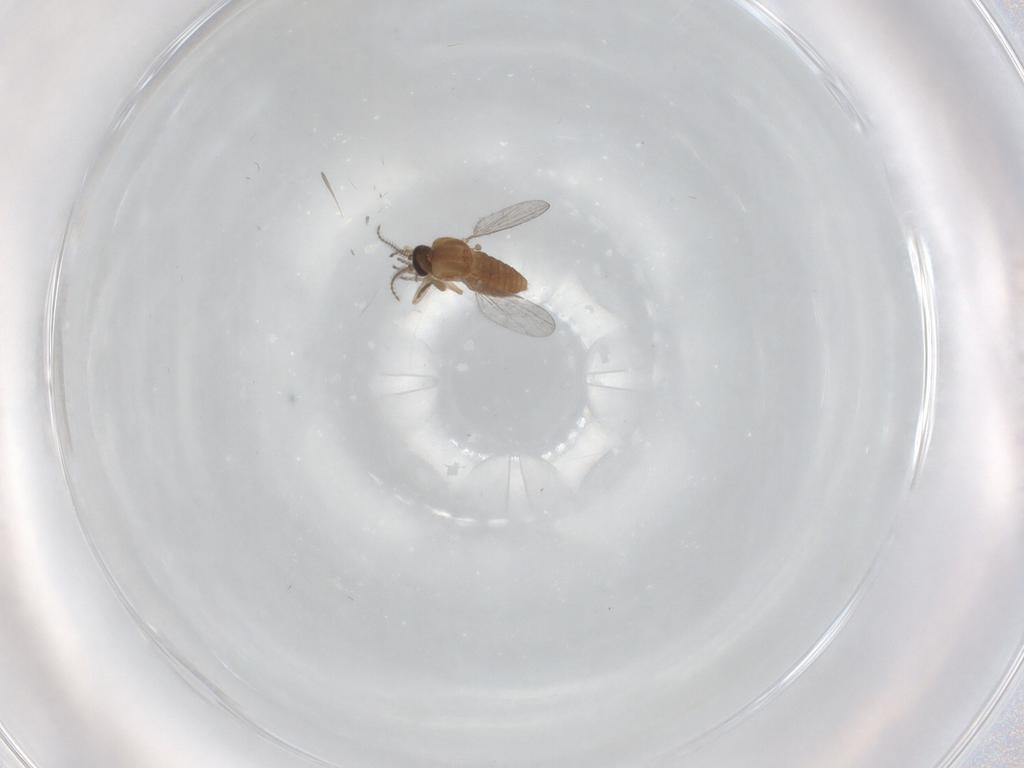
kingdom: Animalia
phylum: Arthropoda
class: Insecta
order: Diptera
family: Ceratopogonidae
